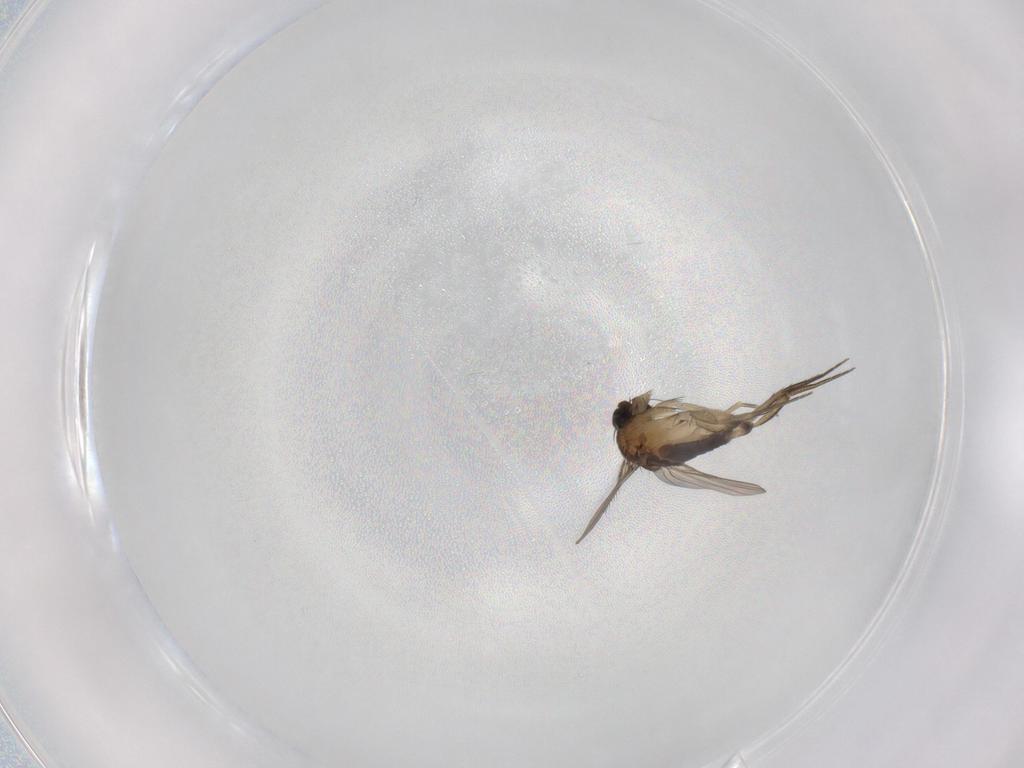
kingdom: Animalia
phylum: Arthropoda
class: Insecta
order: Diptera
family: Phoridae
